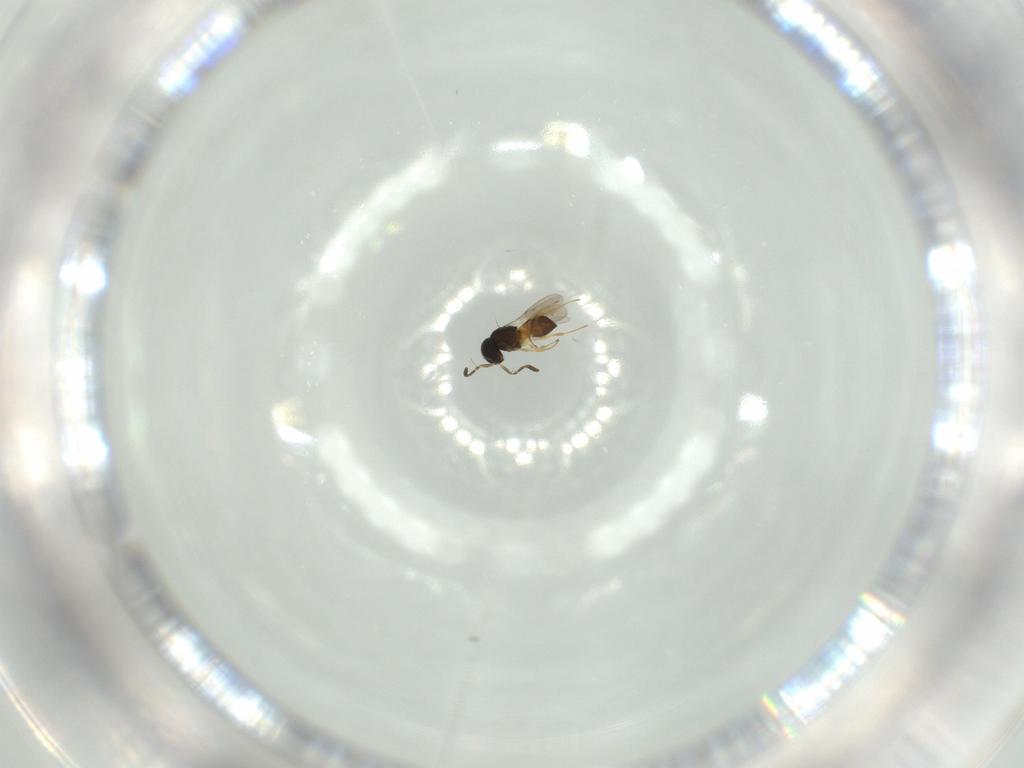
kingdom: Animalia
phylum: Arthropoda
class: Insecta
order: Hymenoptera
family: Scelionidae
